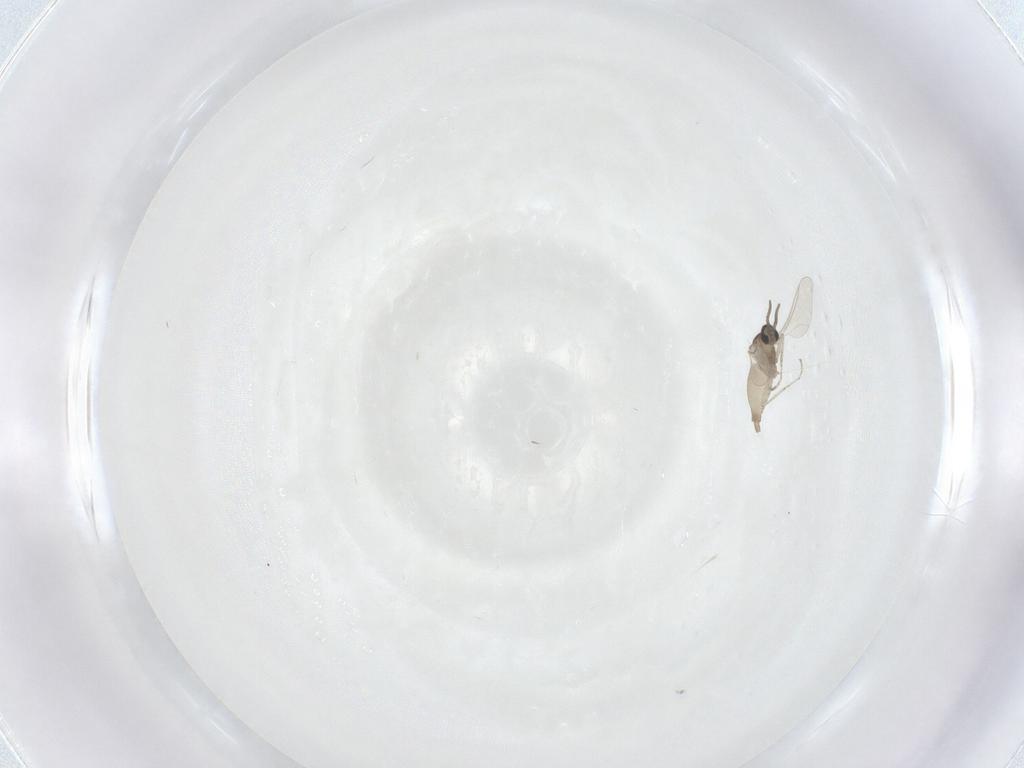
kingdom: Animalia
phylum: Arthropoda
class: Insecta
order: Diptera
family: Cecidomyiidae
